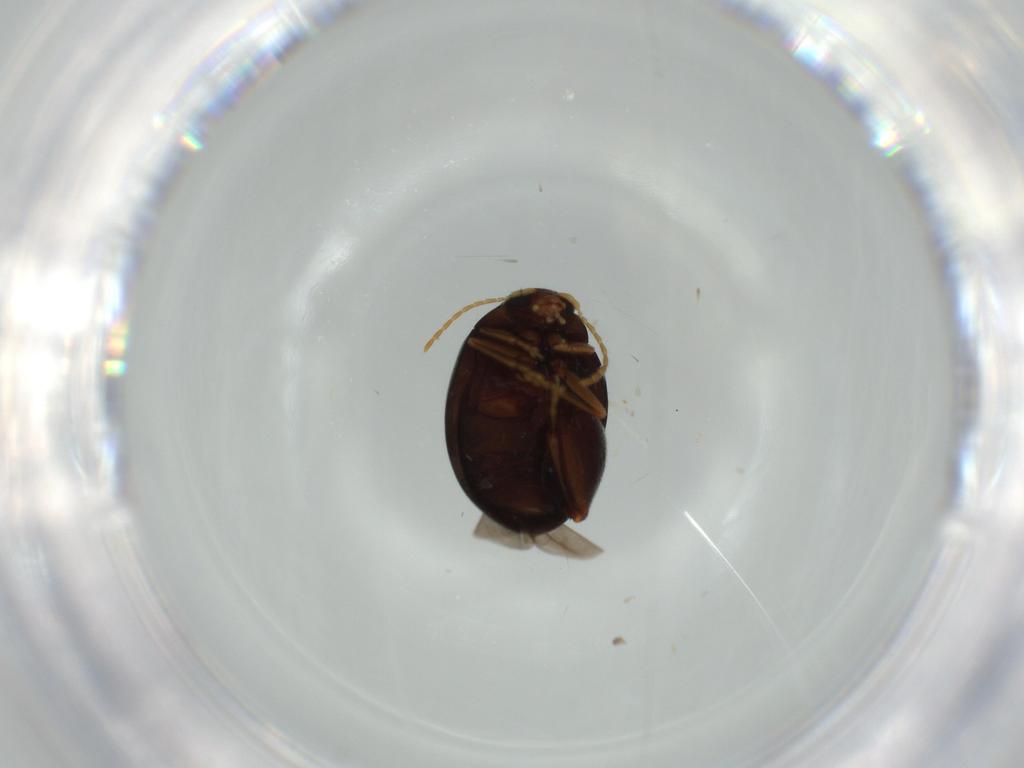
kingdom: Animalia
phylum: Arthropoda
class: Insecta
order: Coleoptera
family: Chrysomelidae
